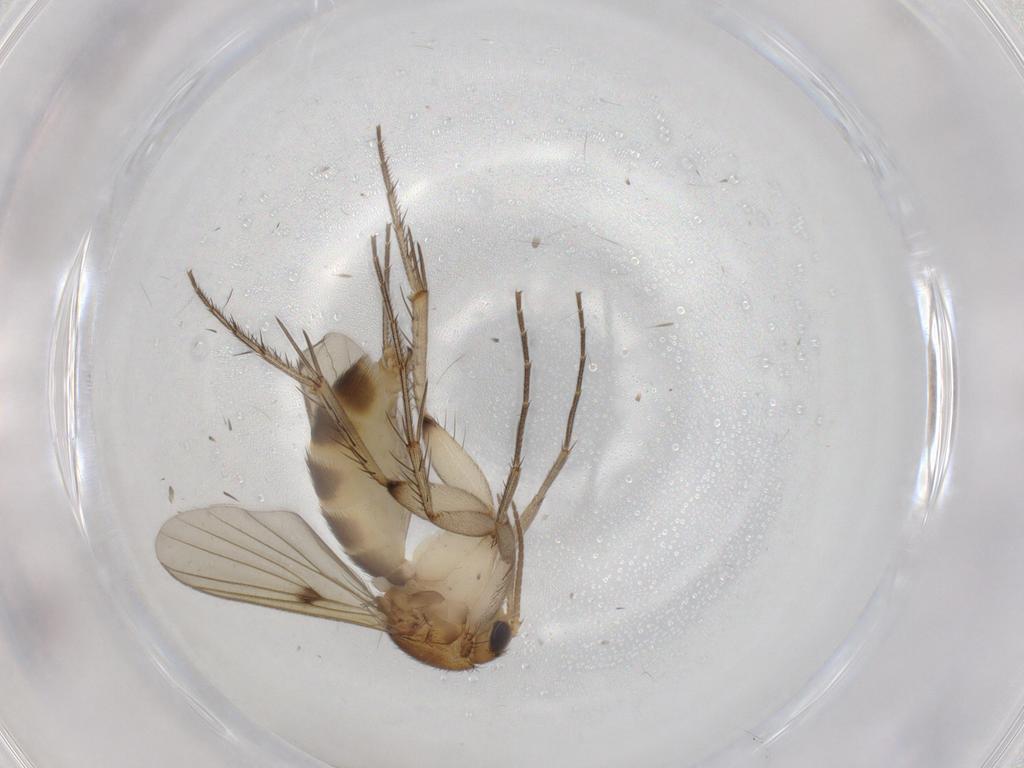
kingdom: Animalia
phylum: Arthropoda
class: Insecta
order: Diptera
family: Mycetophilidae
